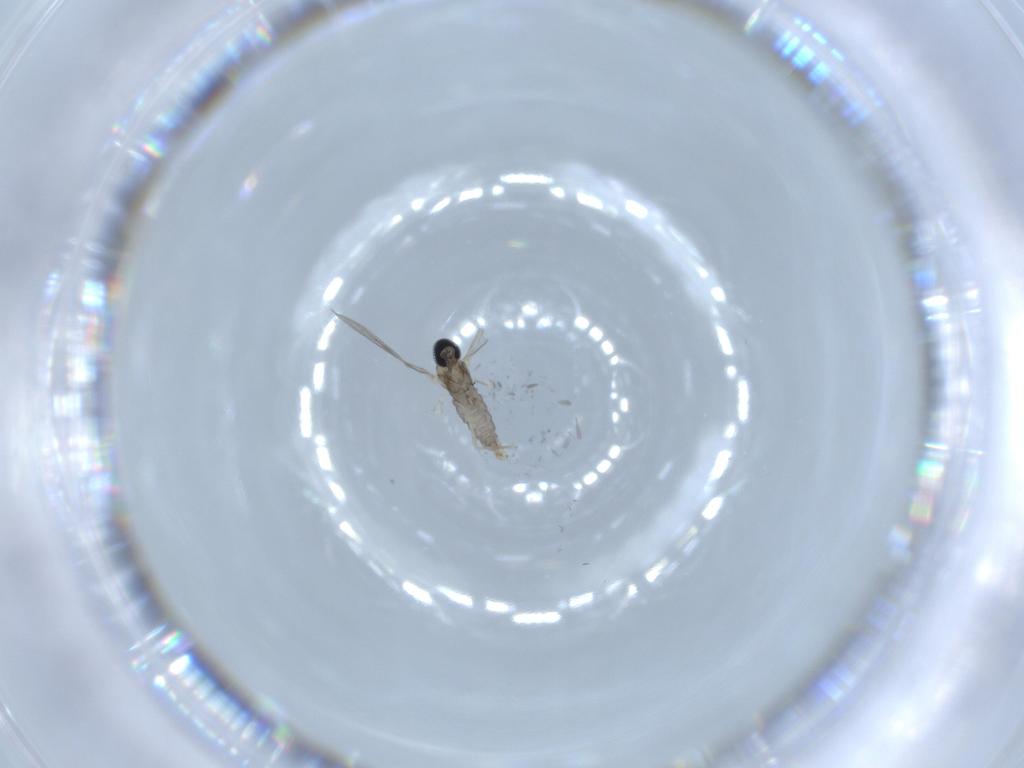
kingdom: Animalia
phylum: Arthropoda
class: Insecta
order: Diptera
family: Cecidomyiidae
